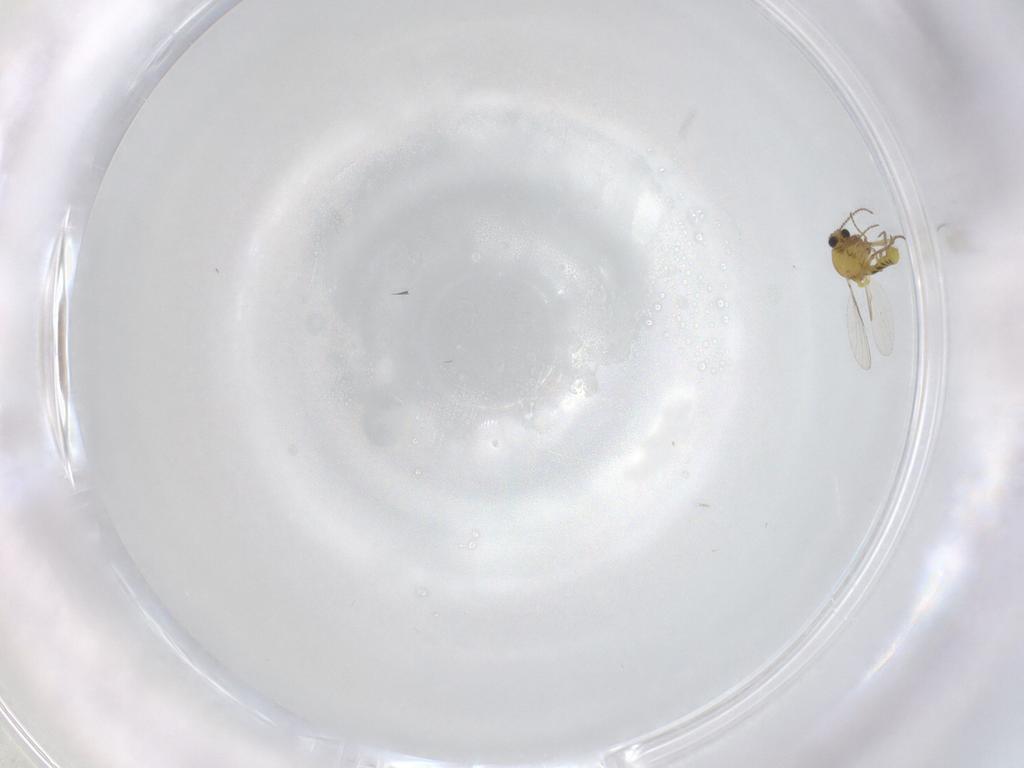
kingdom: Animalia
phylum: Arthropoda
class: Insecta
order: Diptera
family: Ceratopogonidae
